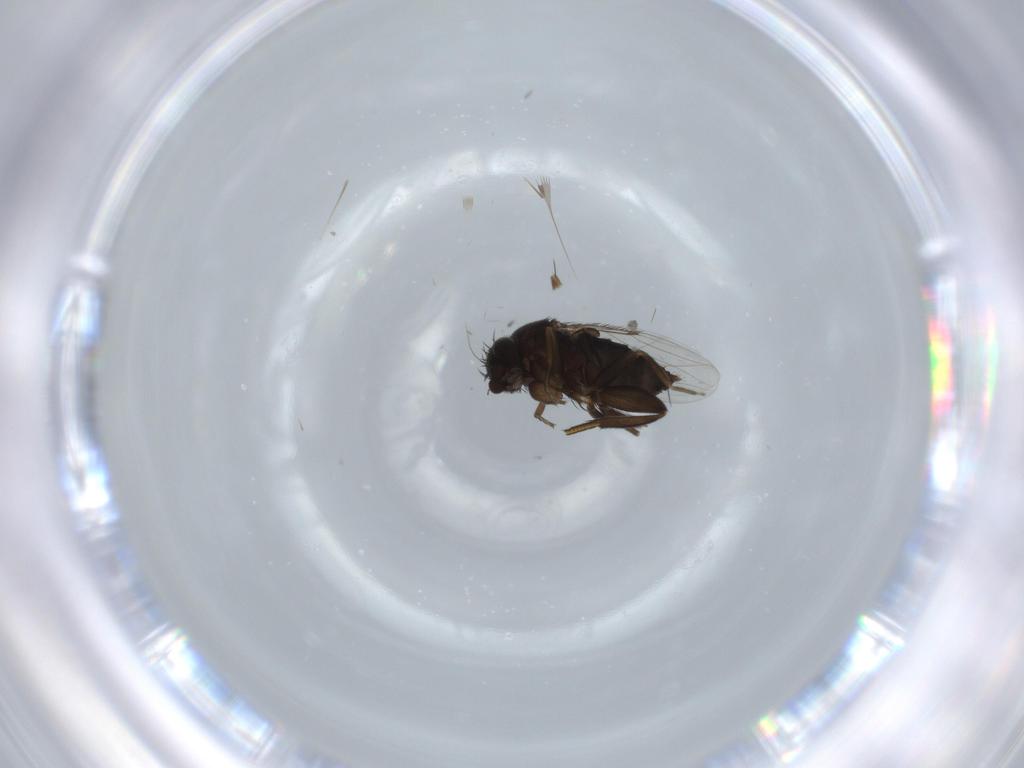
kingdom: Animalia
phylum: Arthropoda
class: Insecta
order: Diptera
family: Phoridae
